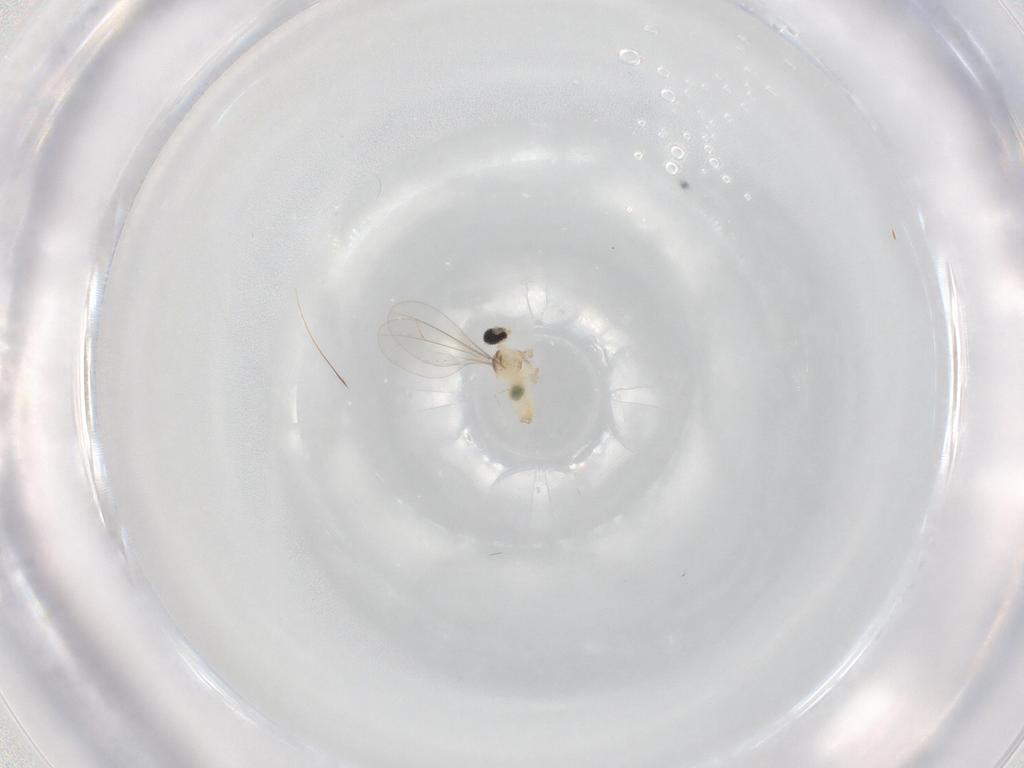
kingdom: Animalia
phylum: Arthropoda
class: Insecta
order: Diptera
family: Cecidomyiidae
